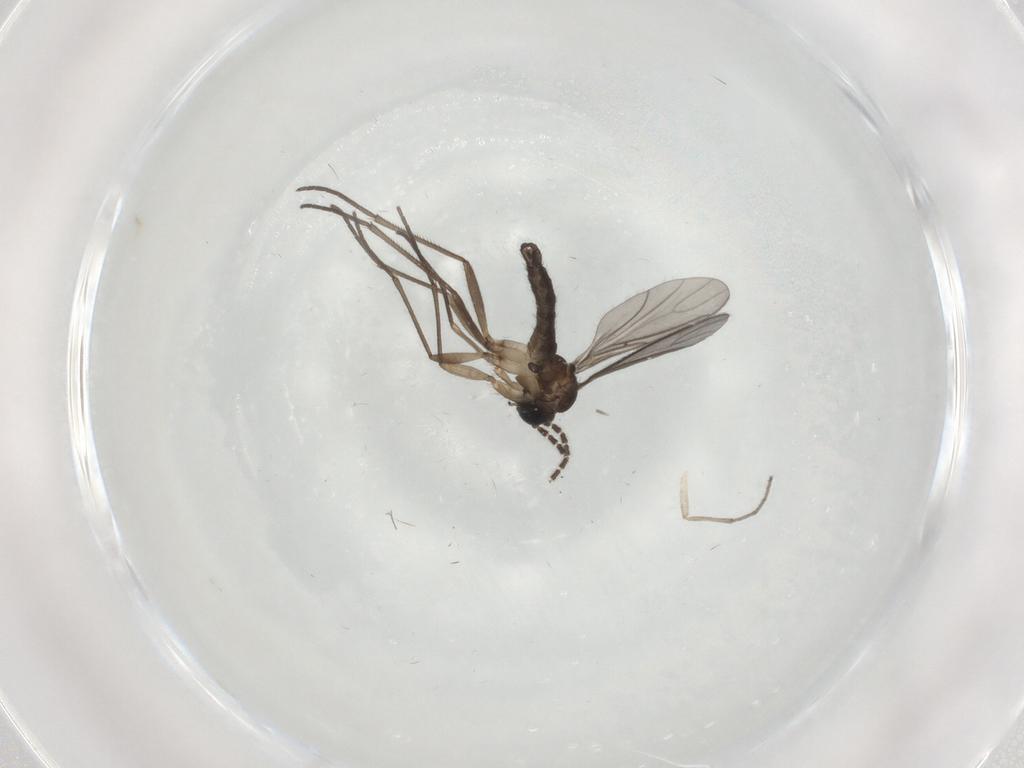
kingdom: Animalia
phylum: Arthropoda
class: Insecta
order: Diptera
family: Sciaridae
